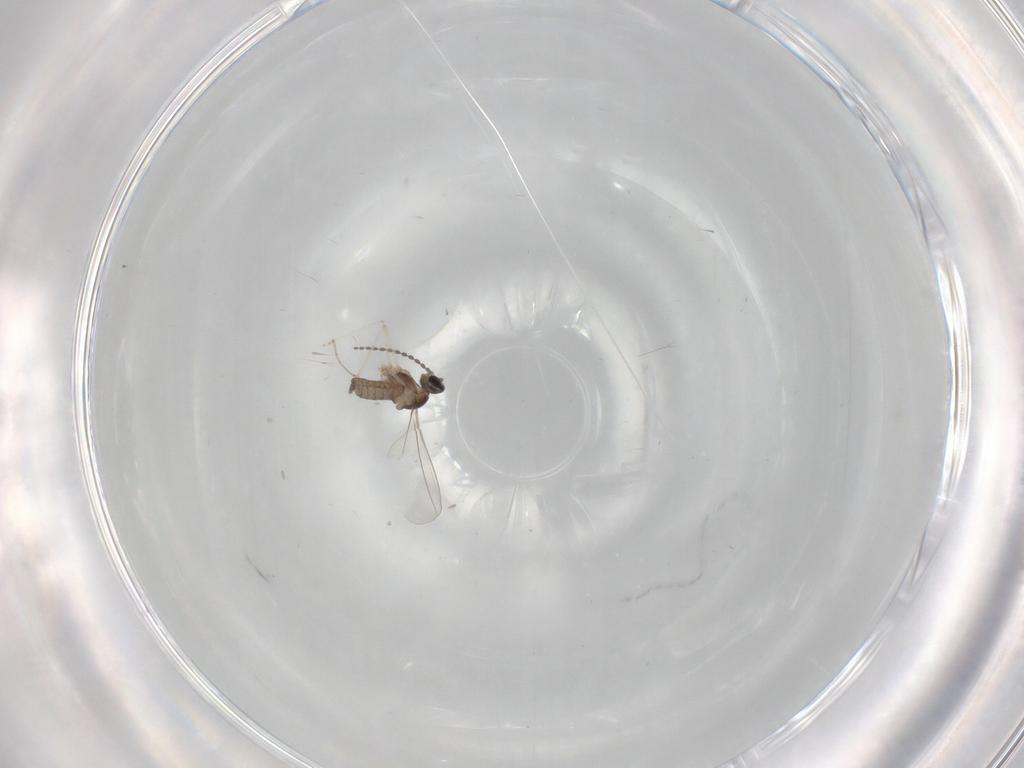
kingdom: Animalia
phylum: Arthropoda
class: Insecta
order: Diptera
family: Cecidomyiidae
